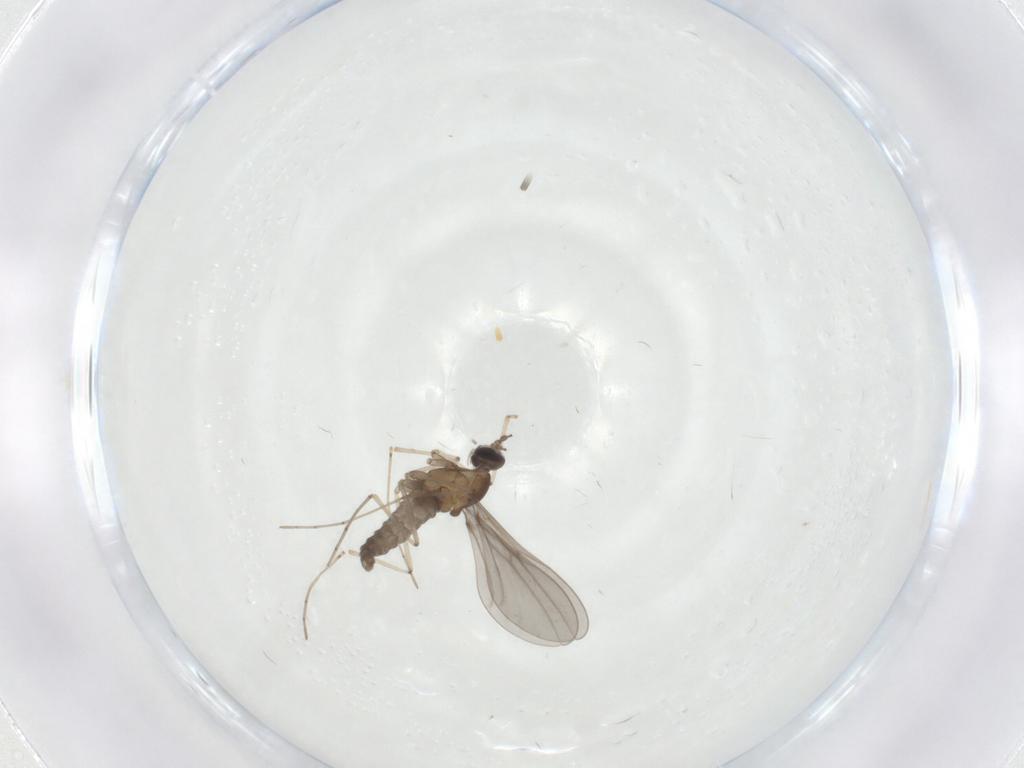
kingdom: Animalia
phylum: Arthropoda
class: Insecta
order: Diptera
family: Cecidomyiidae
